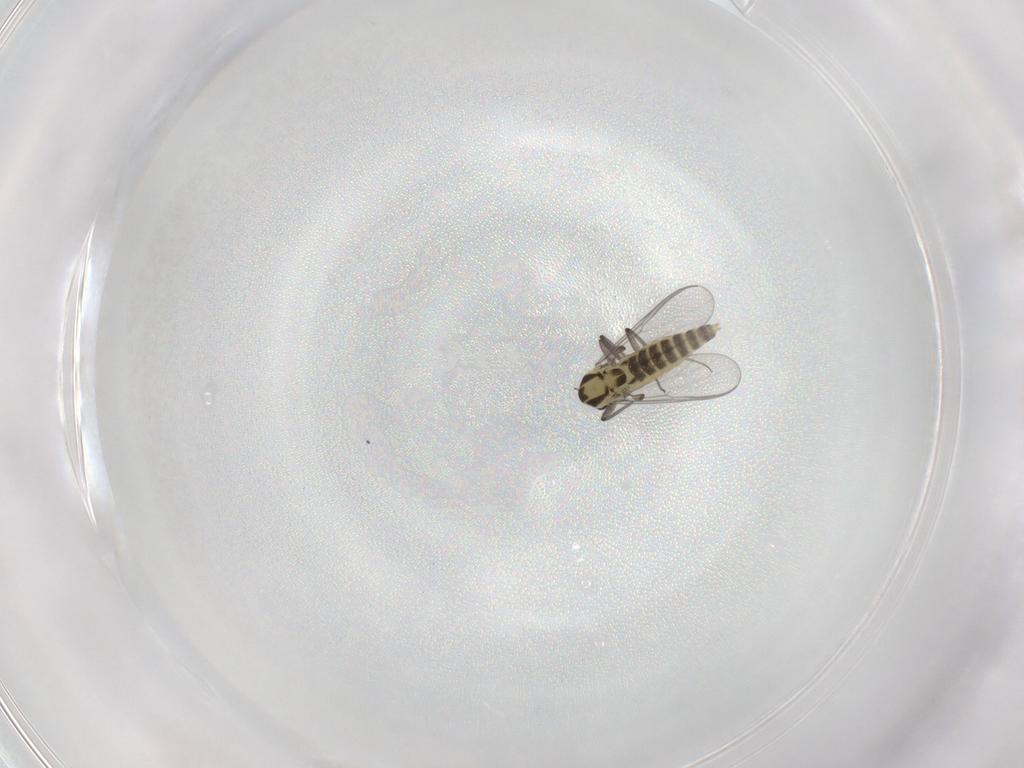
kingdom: Animalia
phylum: Arthropoda
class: Insecta
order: Diptera
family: Chironomidae
